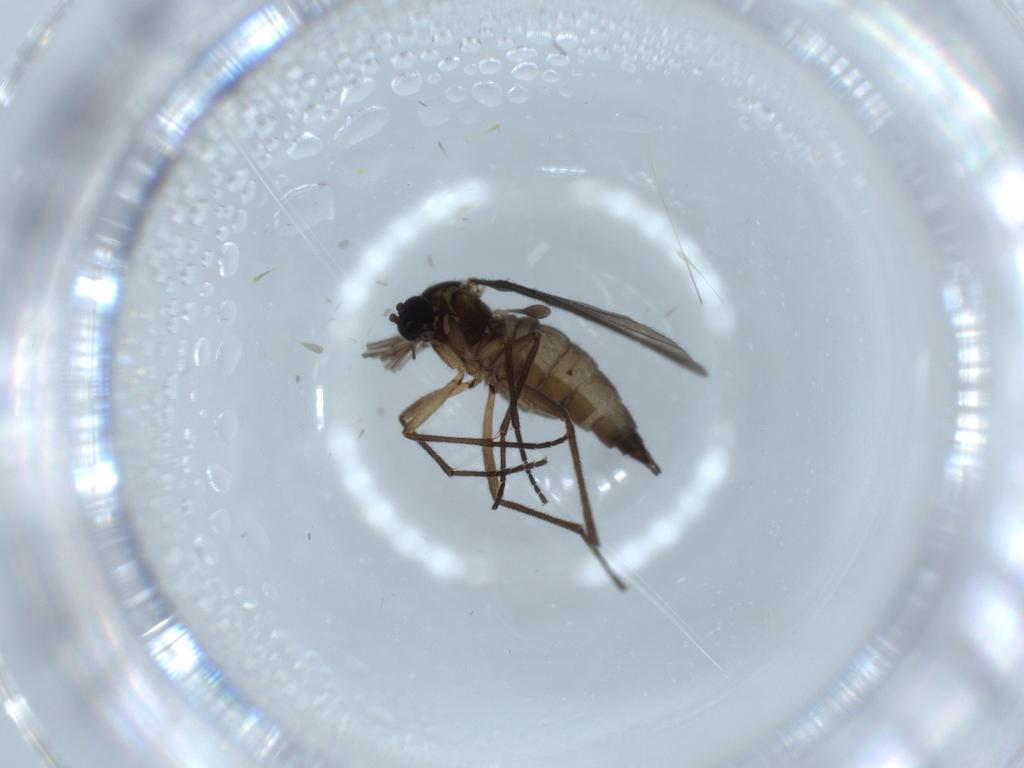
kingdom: Animalia
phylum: Arthropoda
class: Insecta
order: Diptera
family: Sciaridae
